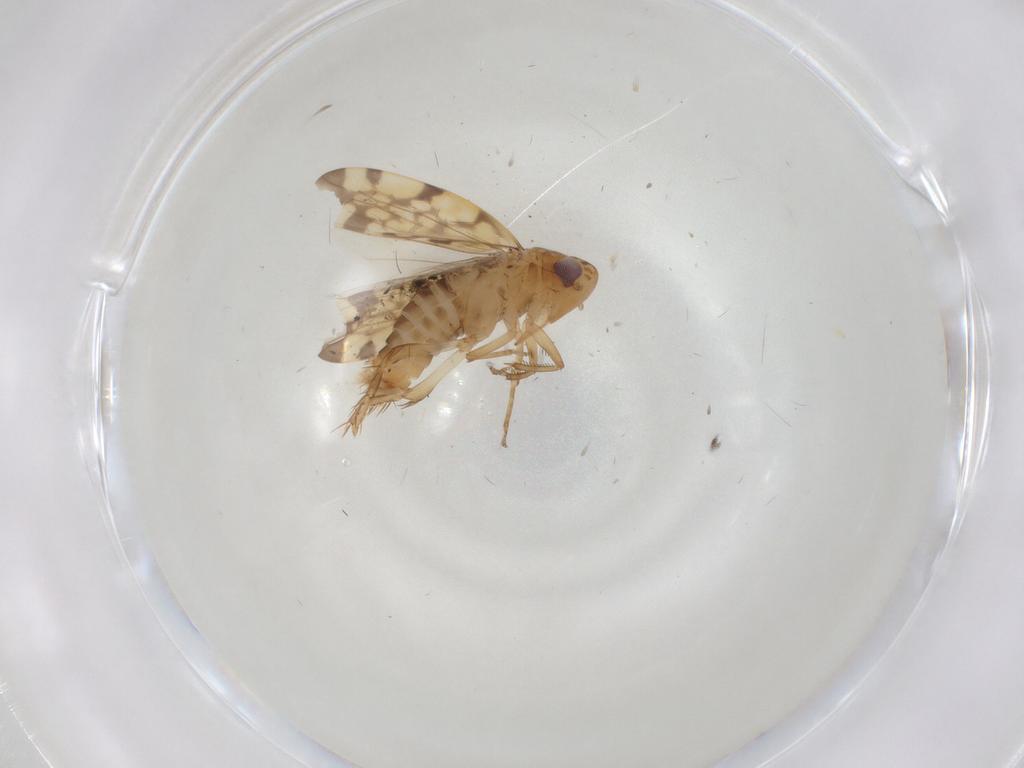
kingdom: Animalia
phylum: Arthropoda
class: Insecta
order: Hemiptera
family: Cicadellidae
